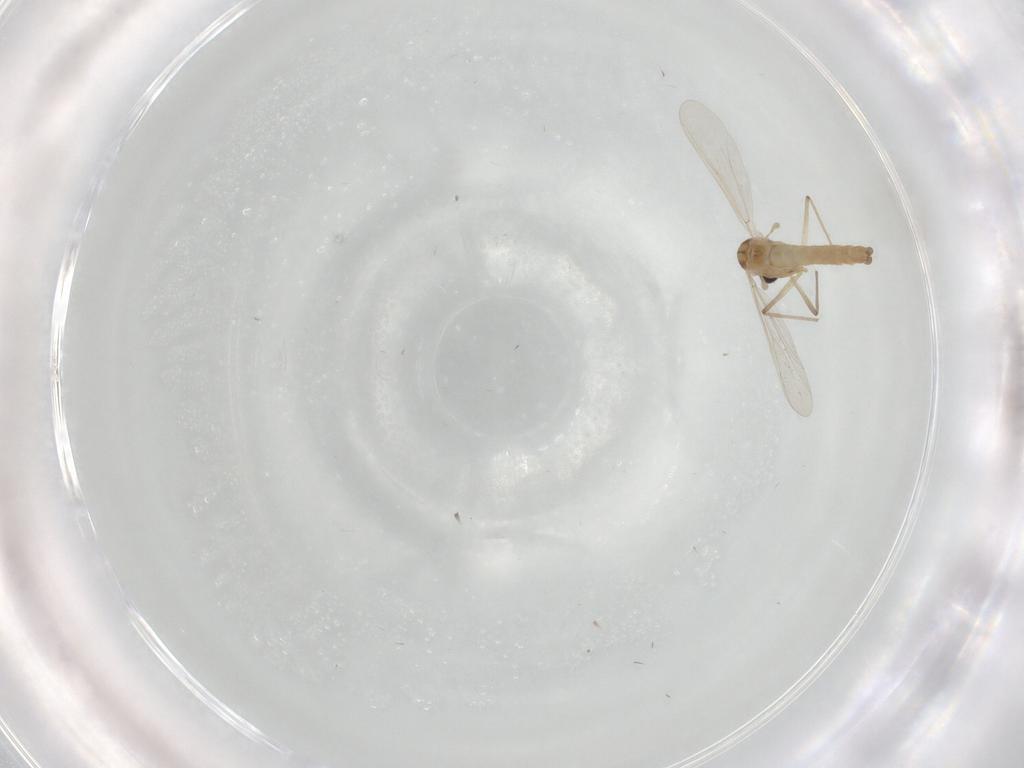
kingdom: Animalia
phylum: Arthropoda
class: Insecta
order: Diptera
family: Chironomidae
